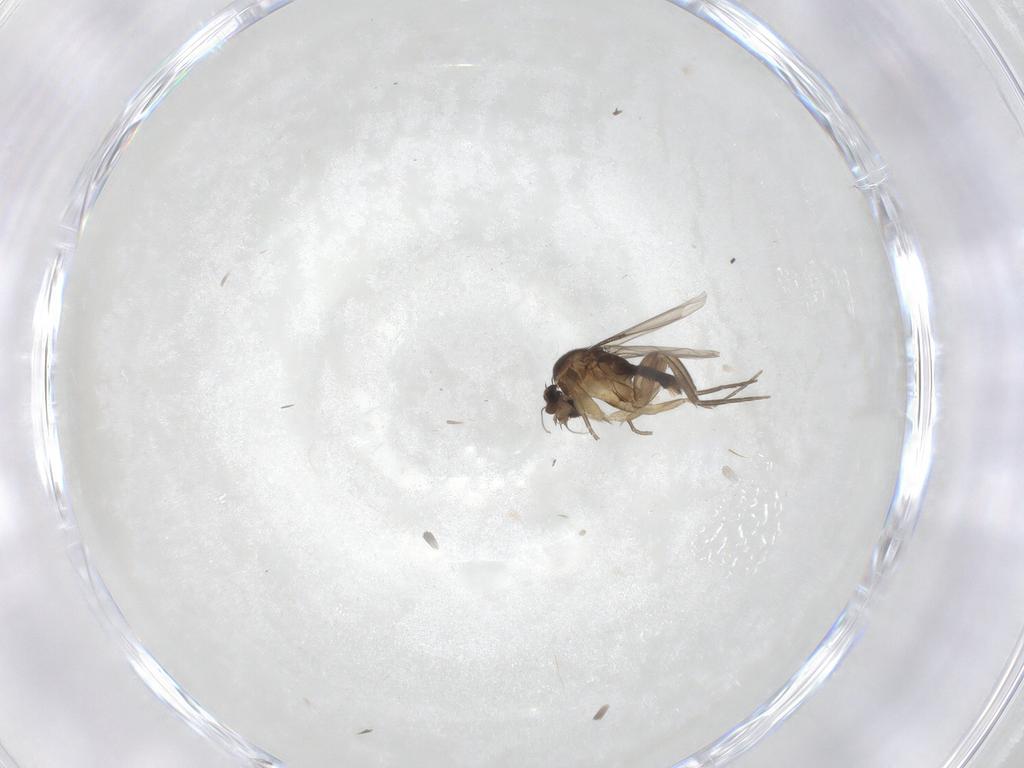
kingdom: Animalia
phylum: Arthropoda
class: Insecta
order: Diptera
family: Phoridae
